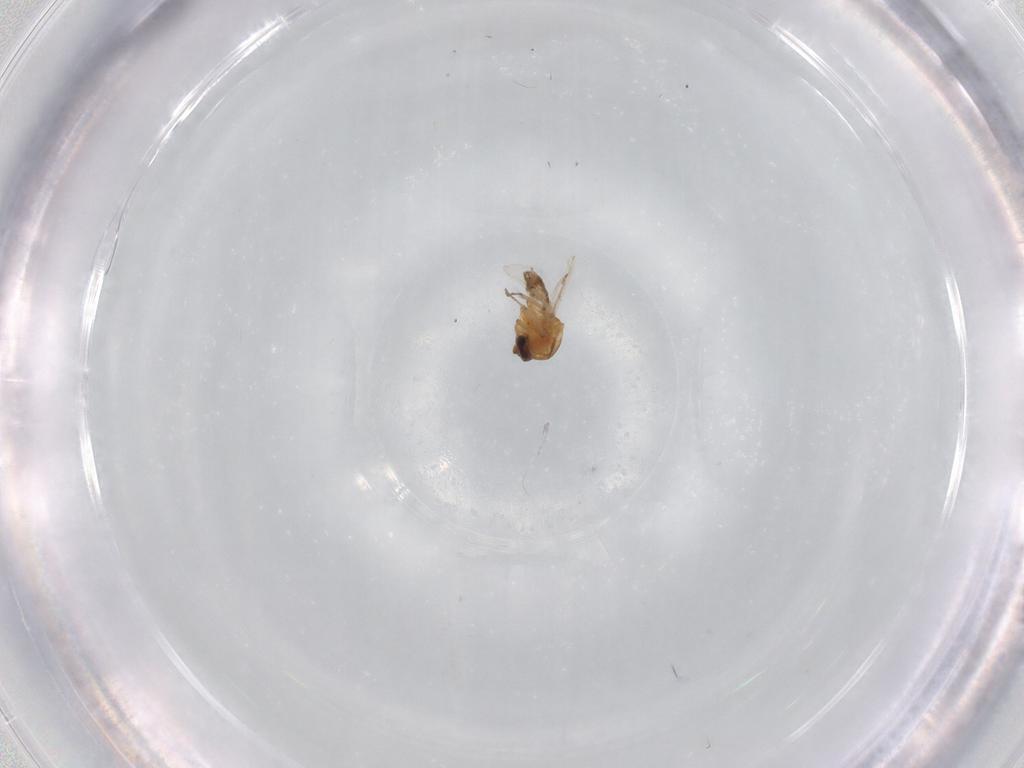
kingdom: Animalia
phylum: Arthropoda
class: Insecta
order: Diptera
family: Ceratopogonidae
